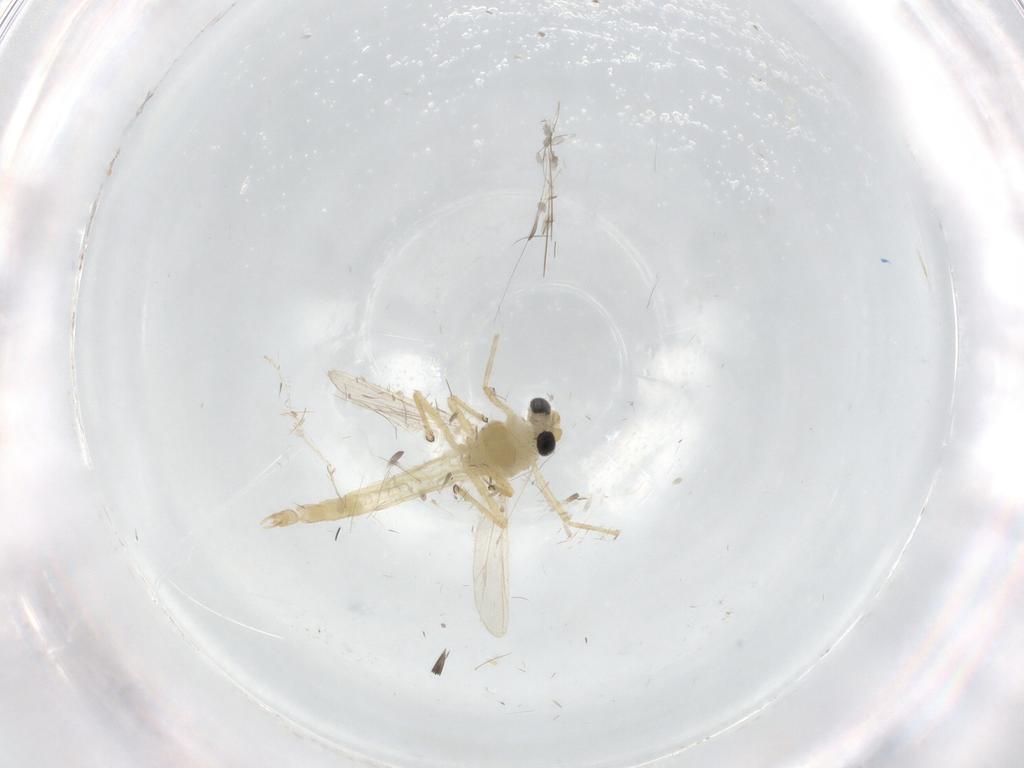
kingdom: Animalia
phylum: Arthropoda
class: Insecta
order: Diptera
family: Chironomidae
